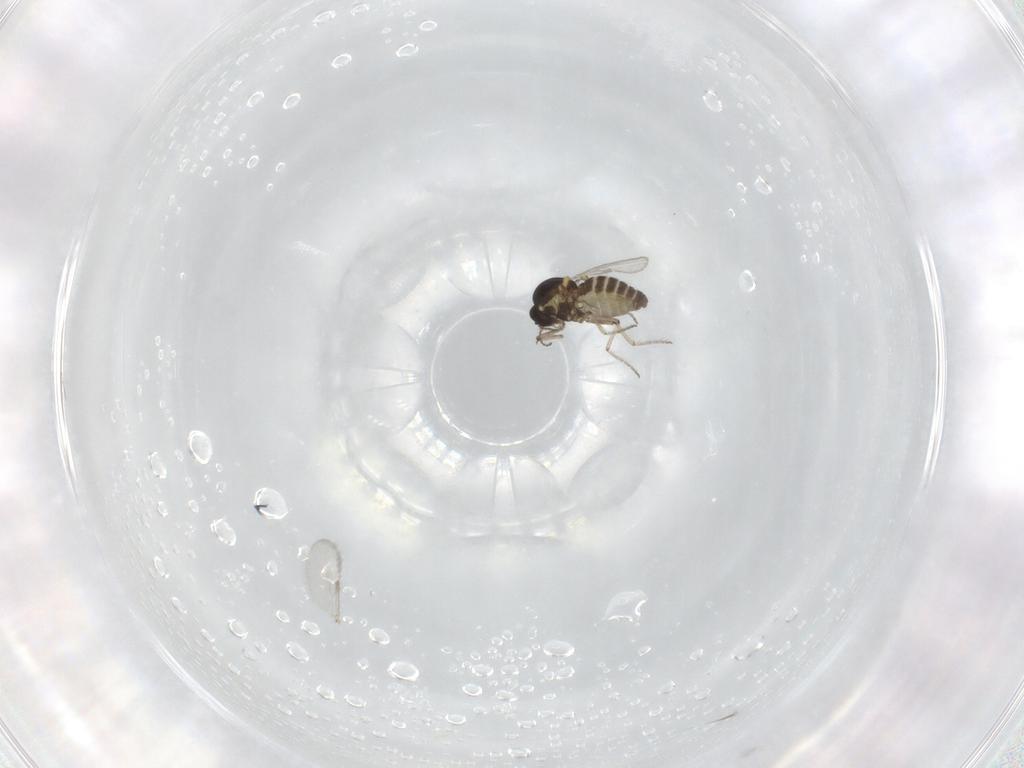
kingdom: Animalia
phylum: Arthropoda
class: Insecta
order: Diptera
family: Ceratopogonidae
